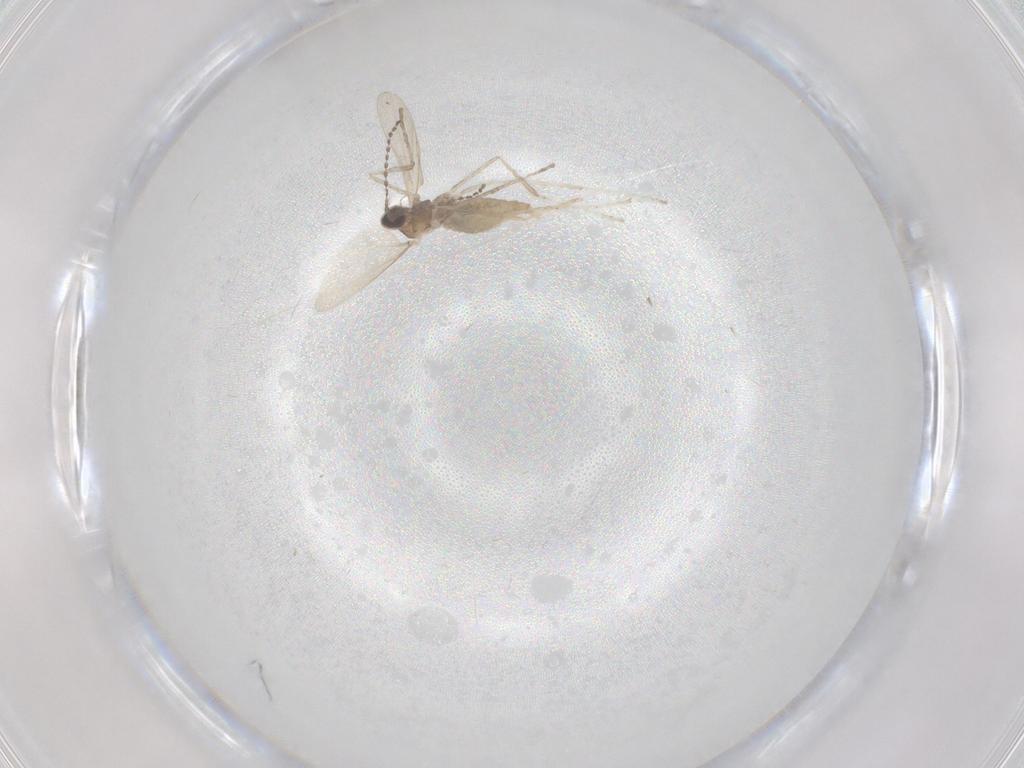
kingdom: Animalia
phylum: Arthropoda
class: Insecta
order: Diptera
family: Cecidomyiidae
